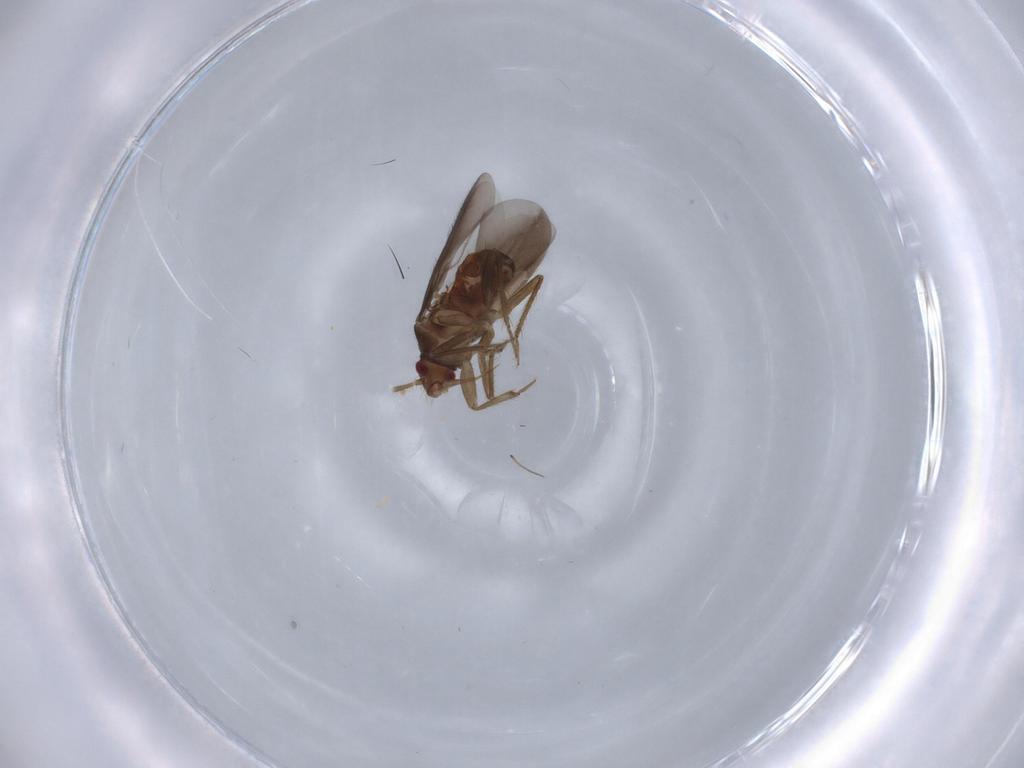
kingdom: Animalia
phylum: Arthropoda
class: Insecta
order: Hemiptera
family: Ceratocombidae
